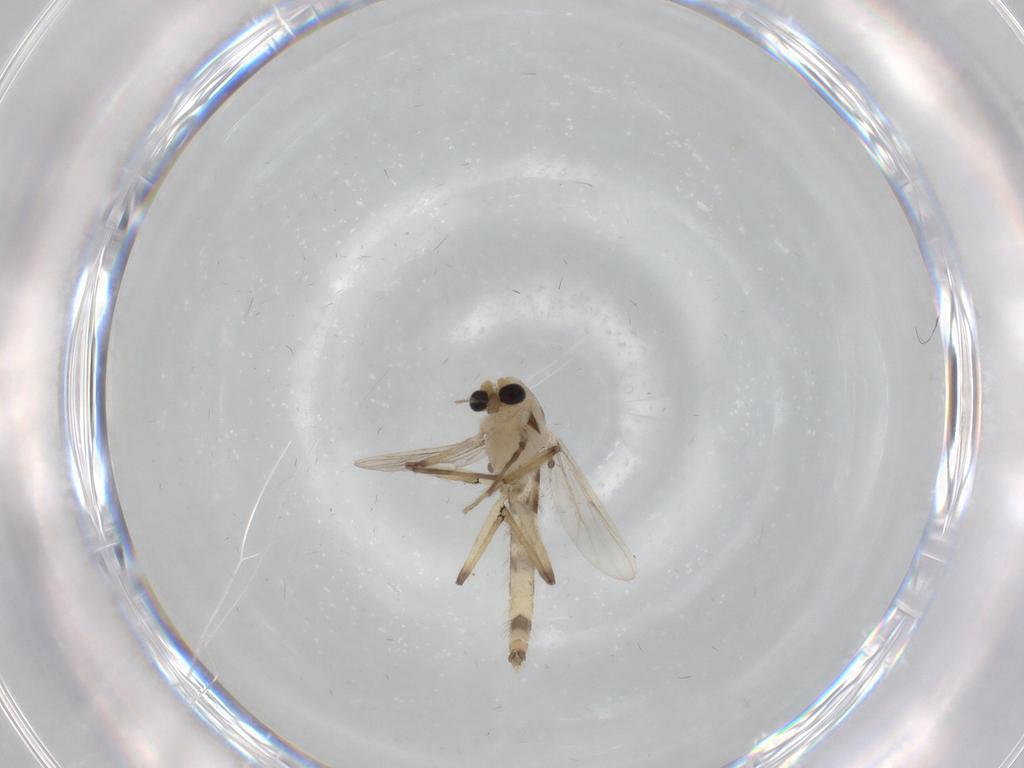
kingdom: Animalia
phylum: Arthropoda
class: Insecta
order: Diptera
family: Chironomidae
